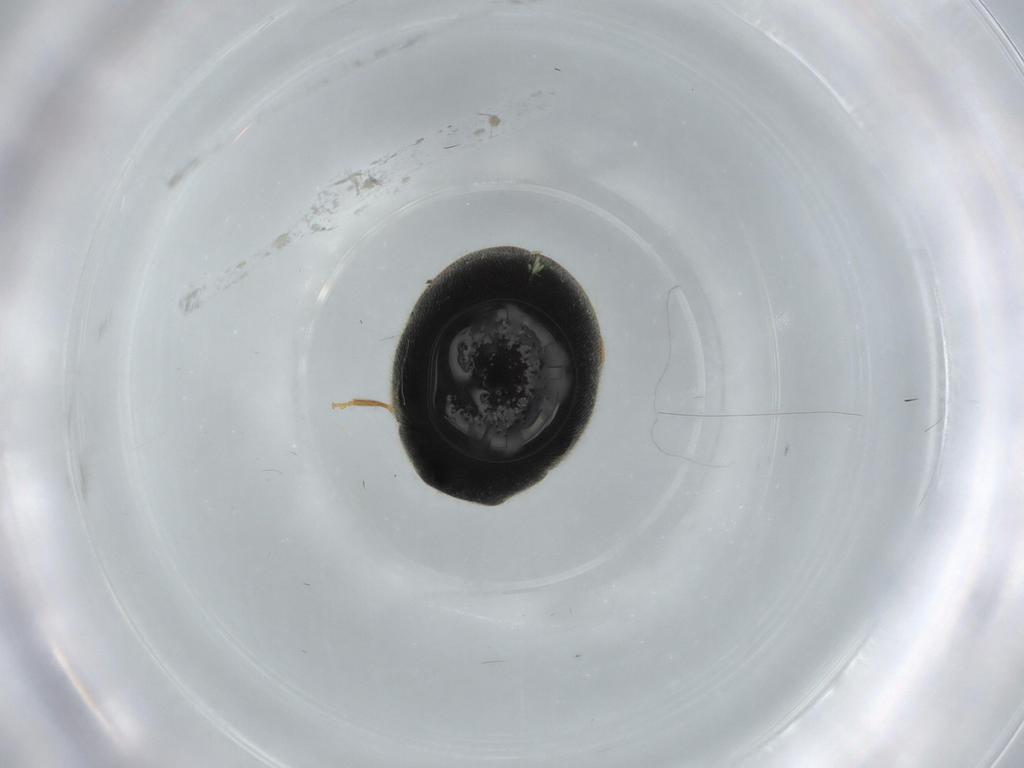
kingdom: Animalia
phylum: Arthropoda
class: Insecta
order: Coleoptera
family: Coccinellidae
